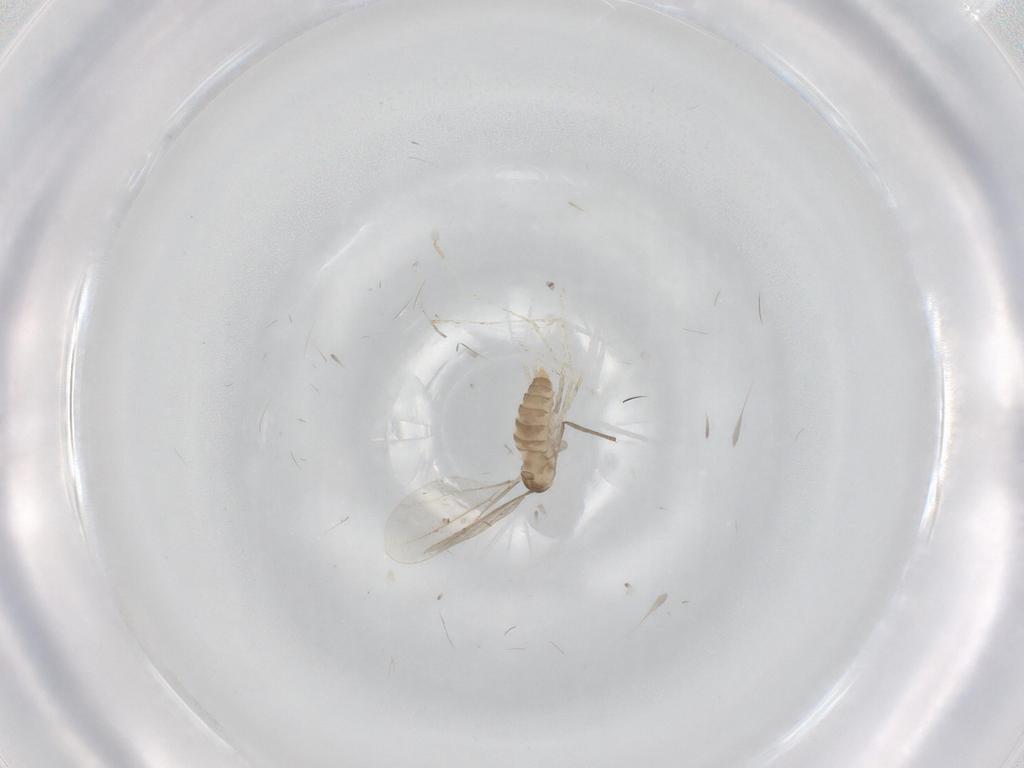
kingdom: Animalia
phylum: Arthropoda
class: Insecta
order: Diptera
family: Cecidomyiidae
